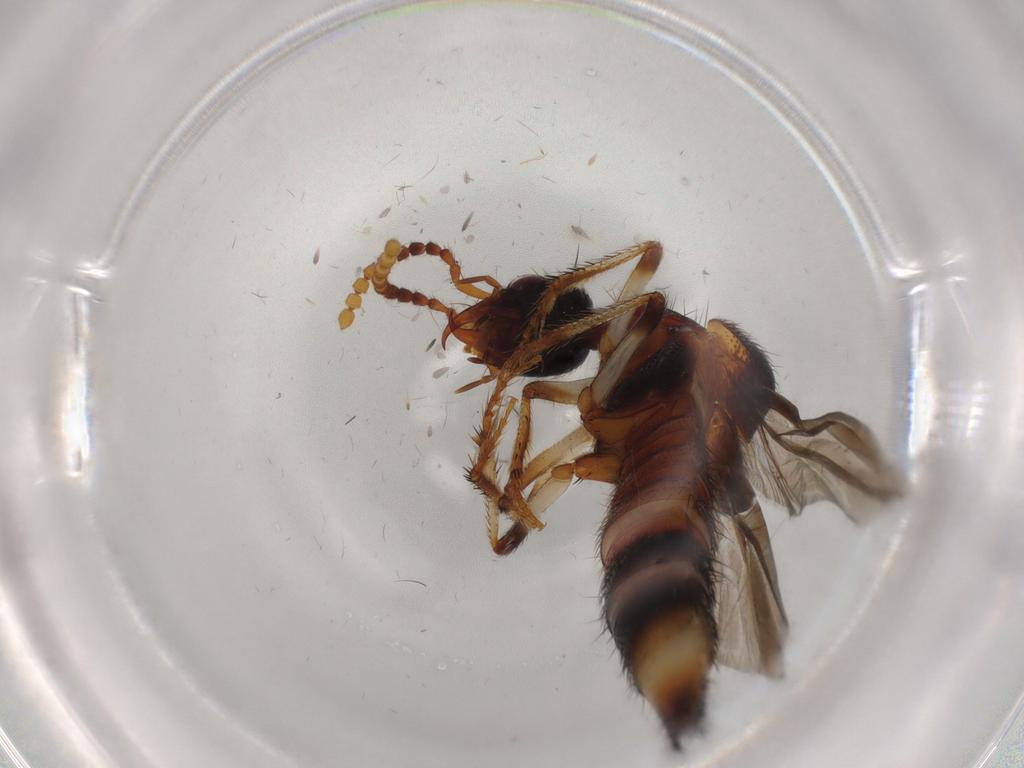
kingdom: Animalia
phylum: Arthropoda
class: Insecta
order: Coleoptera
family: Staphylinidae
